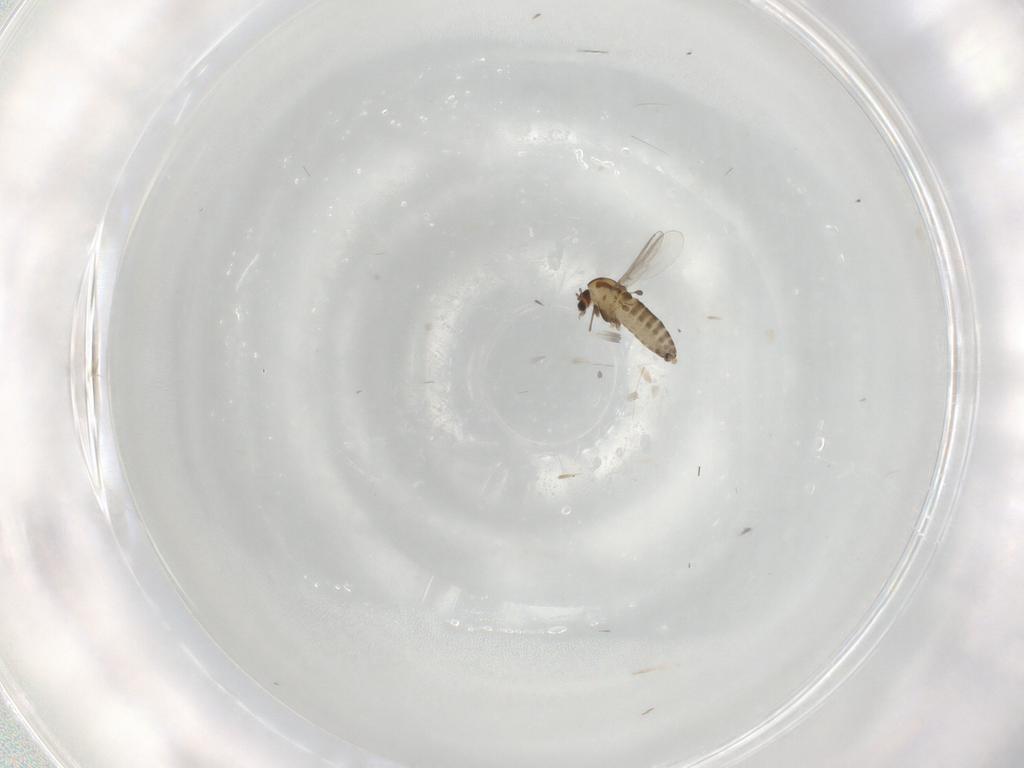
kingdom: Animalia
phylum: Arthropoda
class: Insecta
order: Diptera
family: Chironomidae
